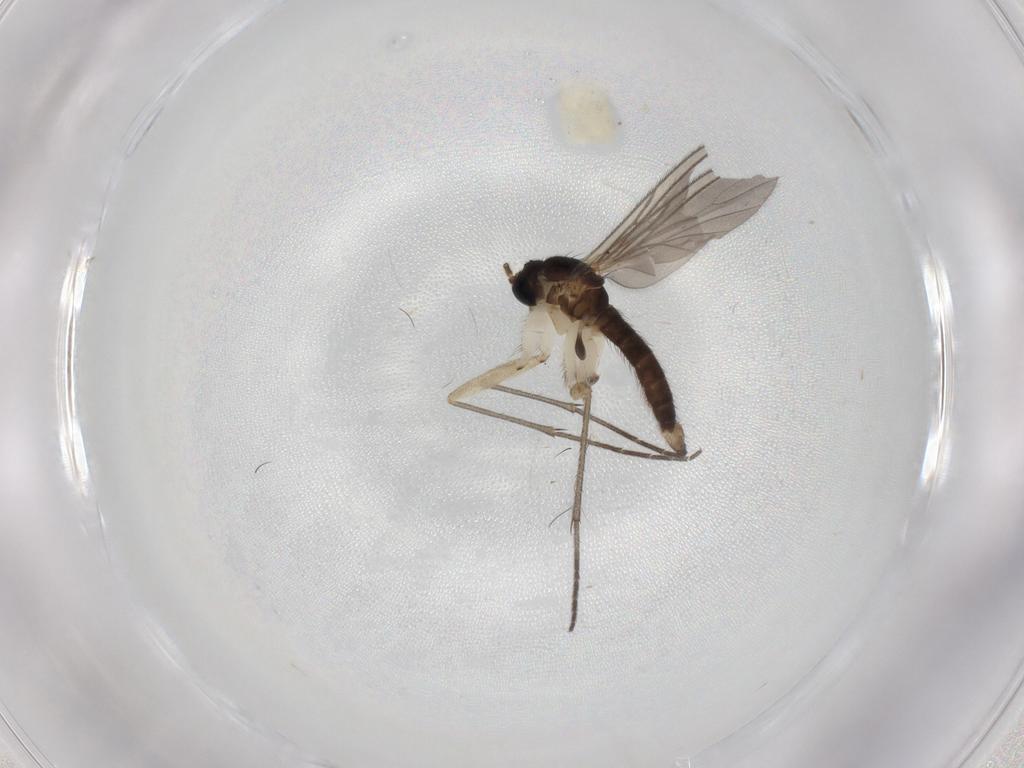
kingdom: Animalia
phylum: Arthropoda
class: Insecta
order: Diptera
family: Sciaridae
